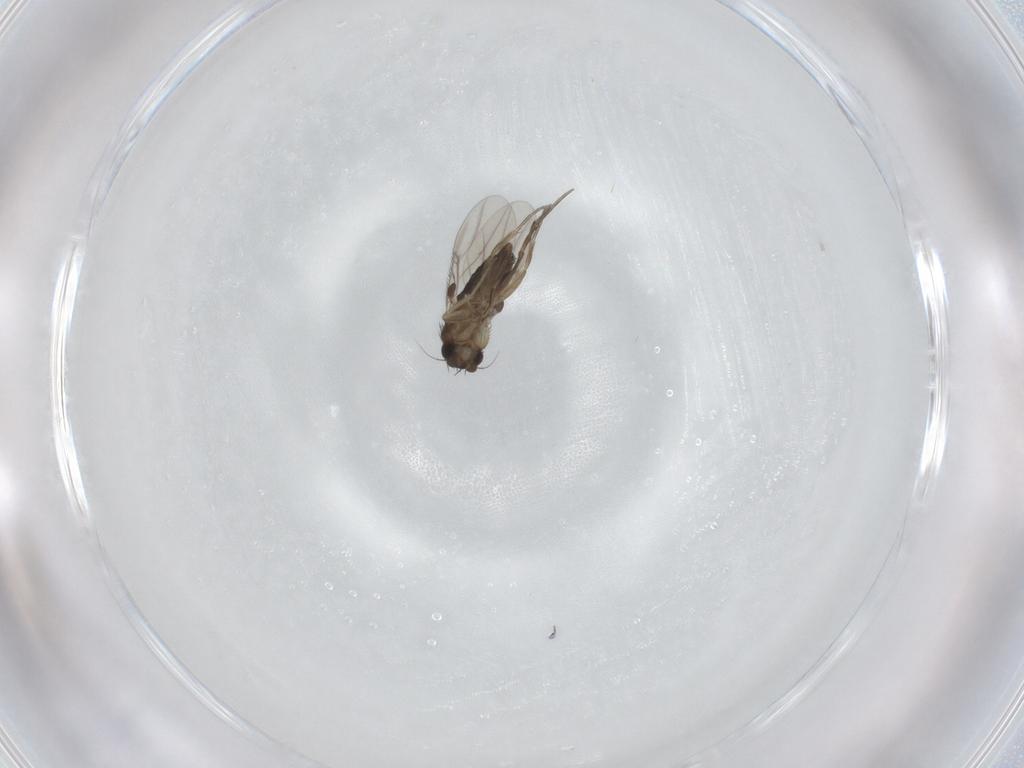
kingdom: Animalia
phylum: Arthropoda
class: Insecta
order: Diptera
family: Phoridae
